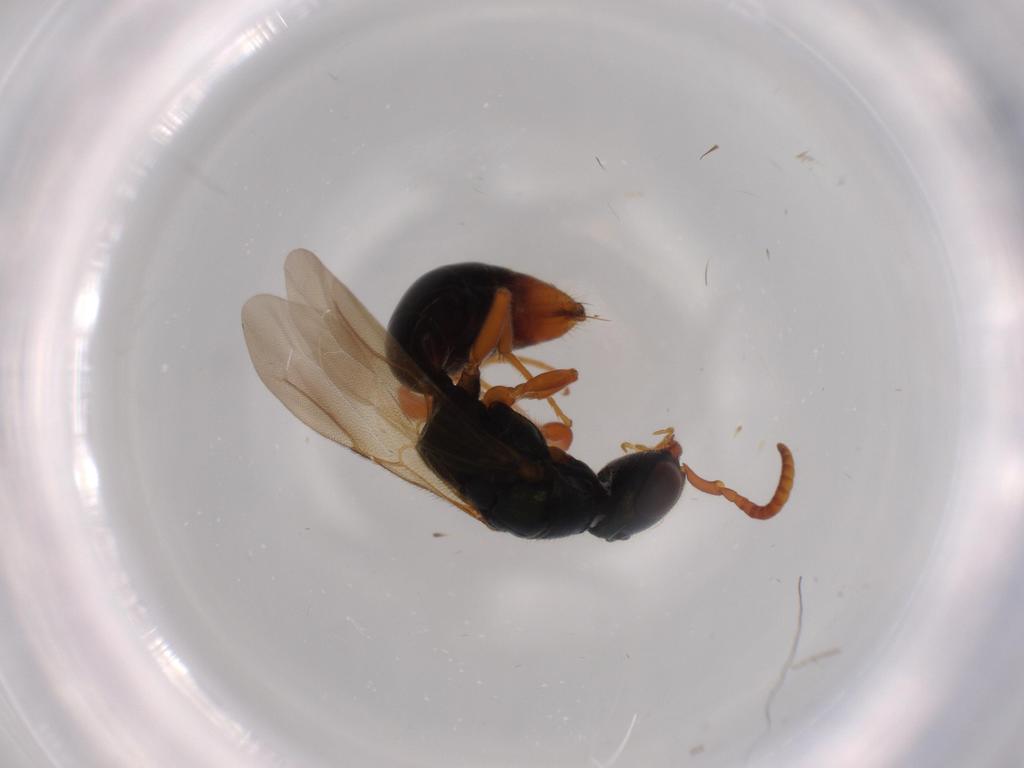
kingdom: Animalia
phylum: Arthropoda
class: Insecta
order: Hymenoptera
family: Bethylidae
